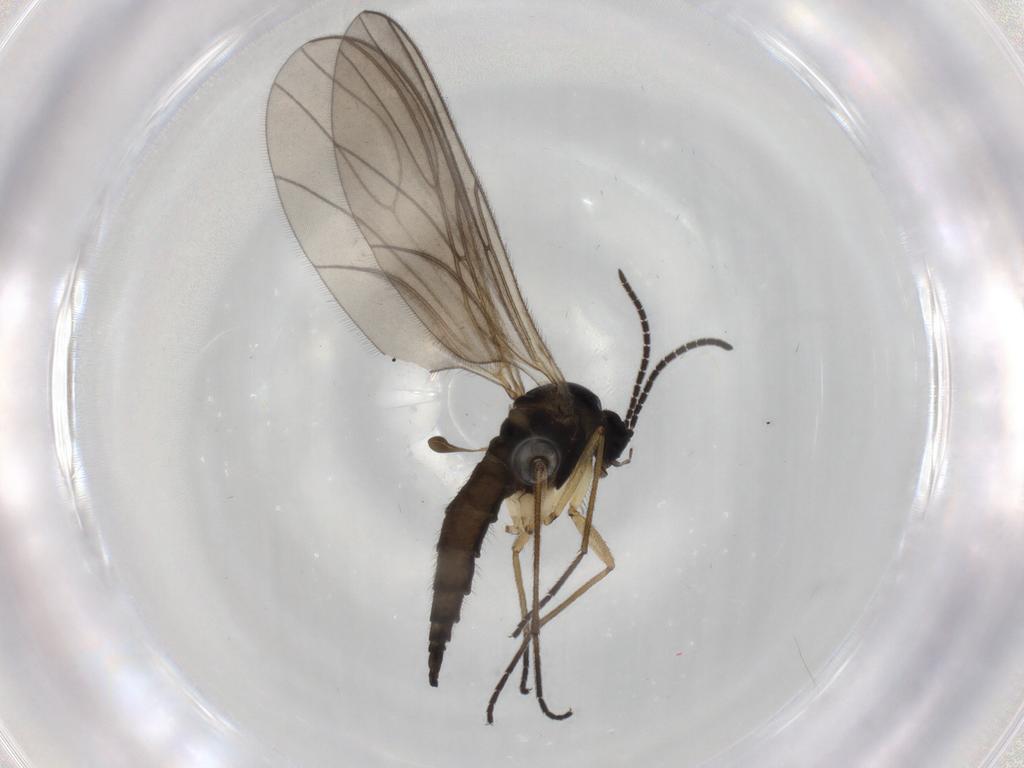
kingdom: Animalia
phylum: Arthropoda
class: Insecta
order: Diptera
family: Sciaridae
